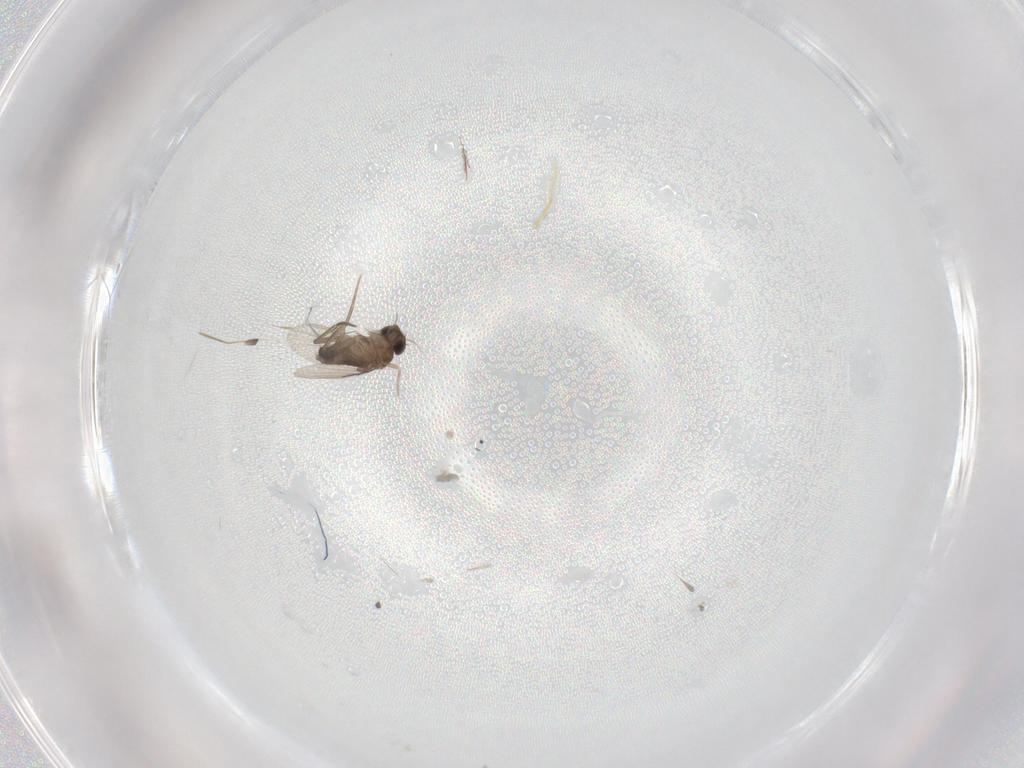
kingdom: Animalia
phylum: Arthropoda
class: Insecta
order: Diptera
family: Phoridae
